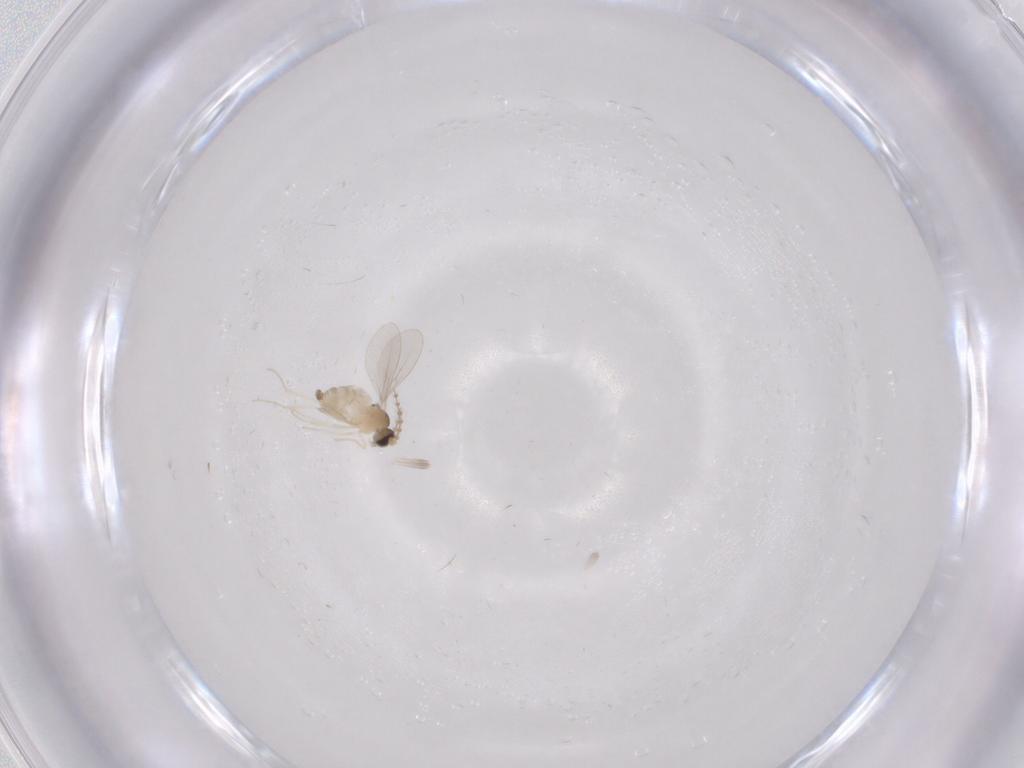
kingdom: Animalia
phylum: Arthropoda
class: Insecta
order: Diptera
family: Cecidomyiidae
